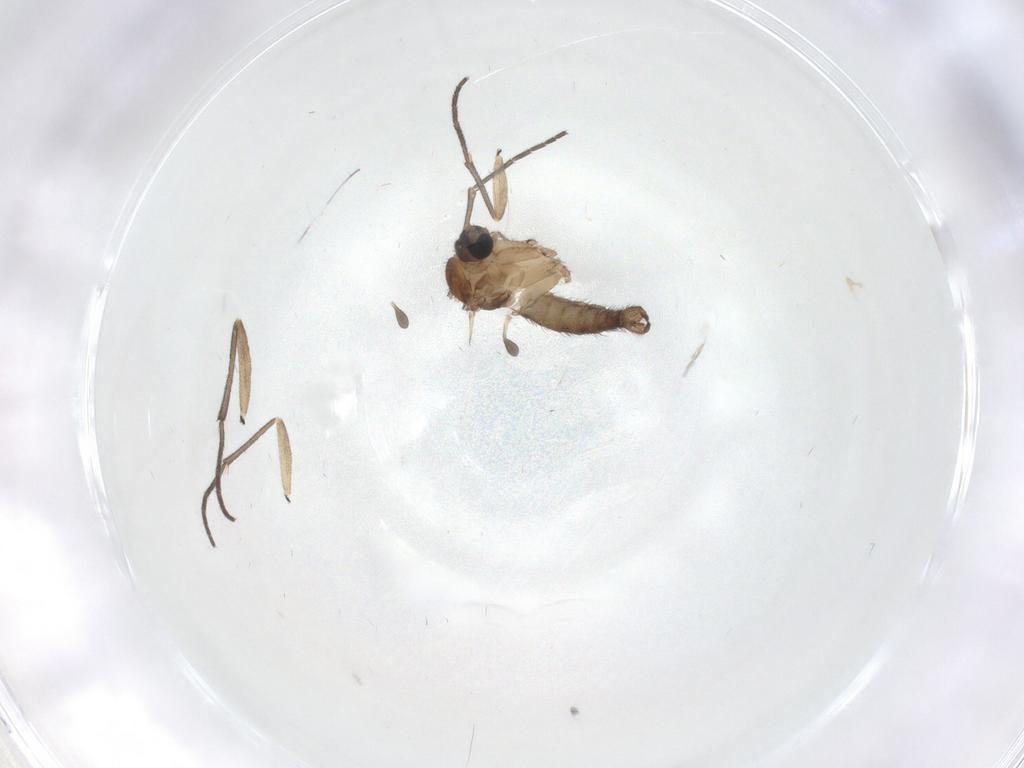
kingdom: Animalia
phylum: Arthropoda
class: Insecta
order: Diptera
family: Sciaridae
